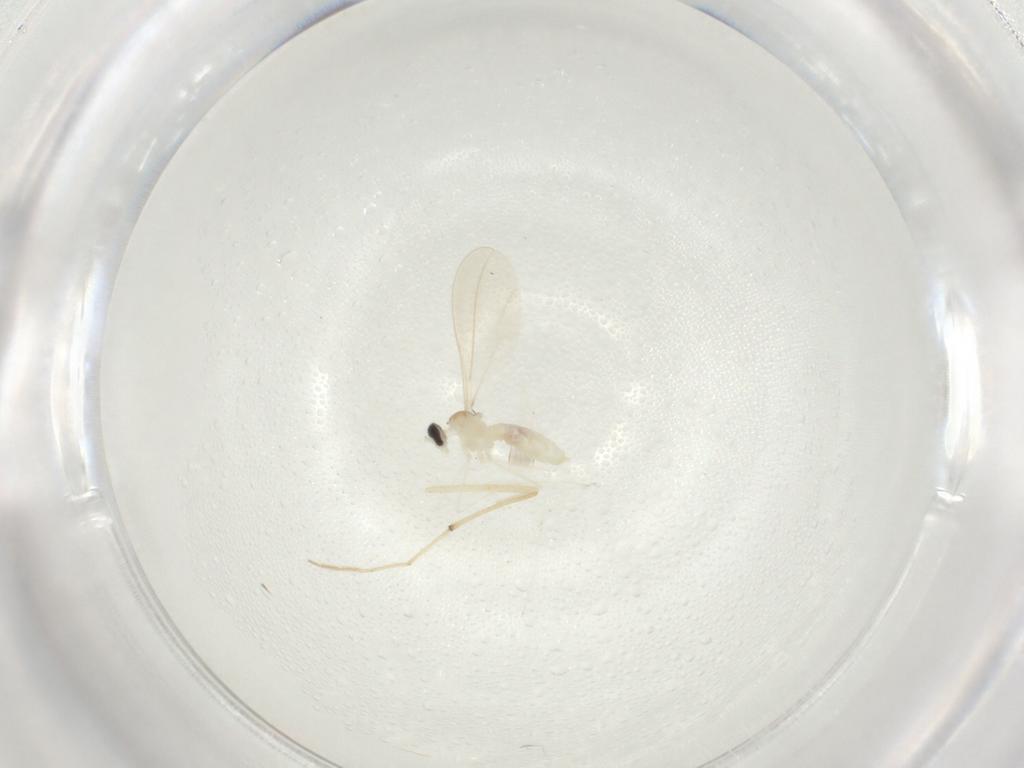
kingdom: Animalia
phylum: Arthropoda
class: Insecta
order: Diptera
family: Chironomidae
